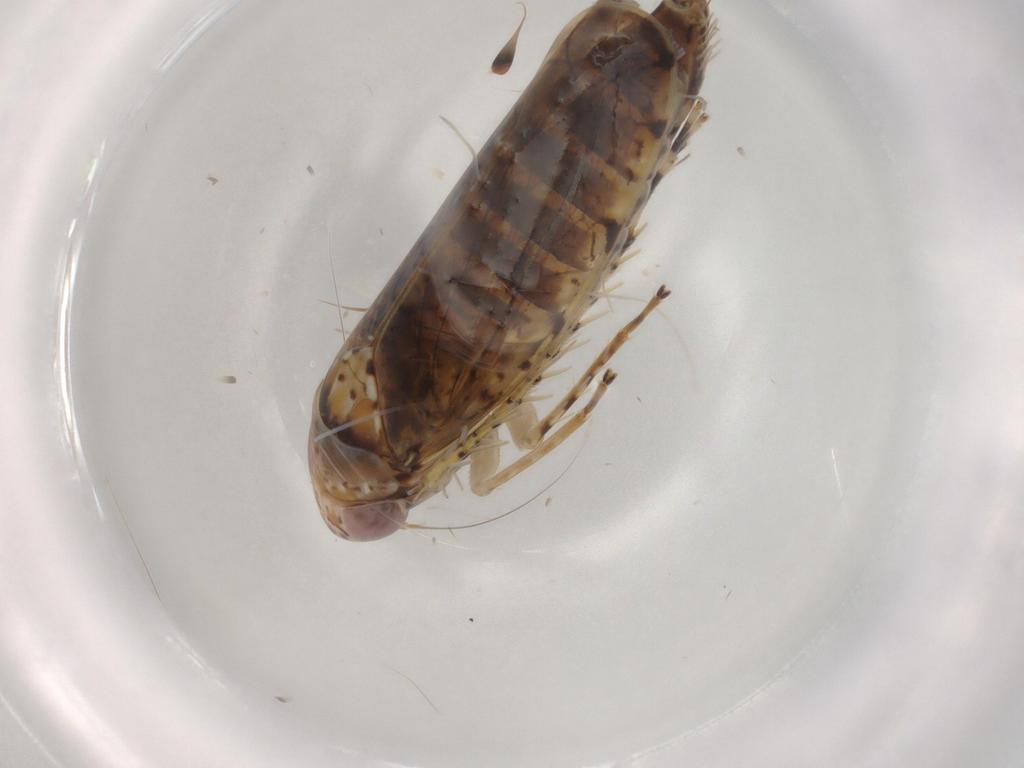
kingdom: Animalia
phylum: Arthropoda
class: Insecta
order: Hemiptera
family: Cicadellidae
